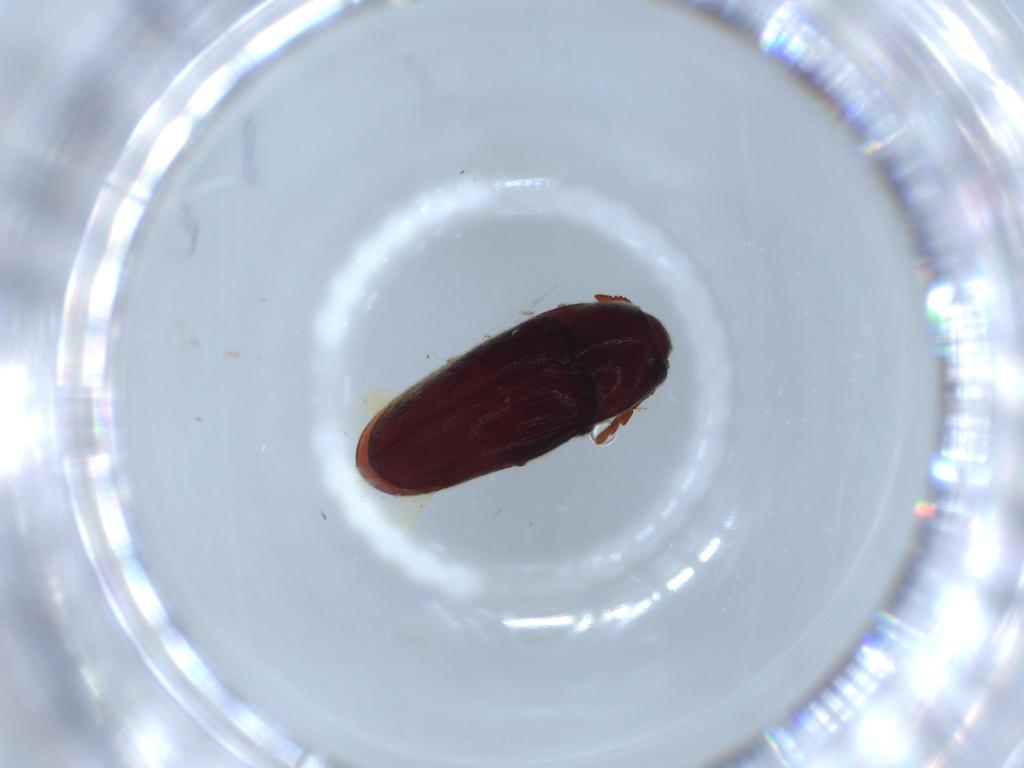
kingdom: Animalia
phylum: Arthropoda
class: Insecta
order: Coleoptera
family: Throscidae
